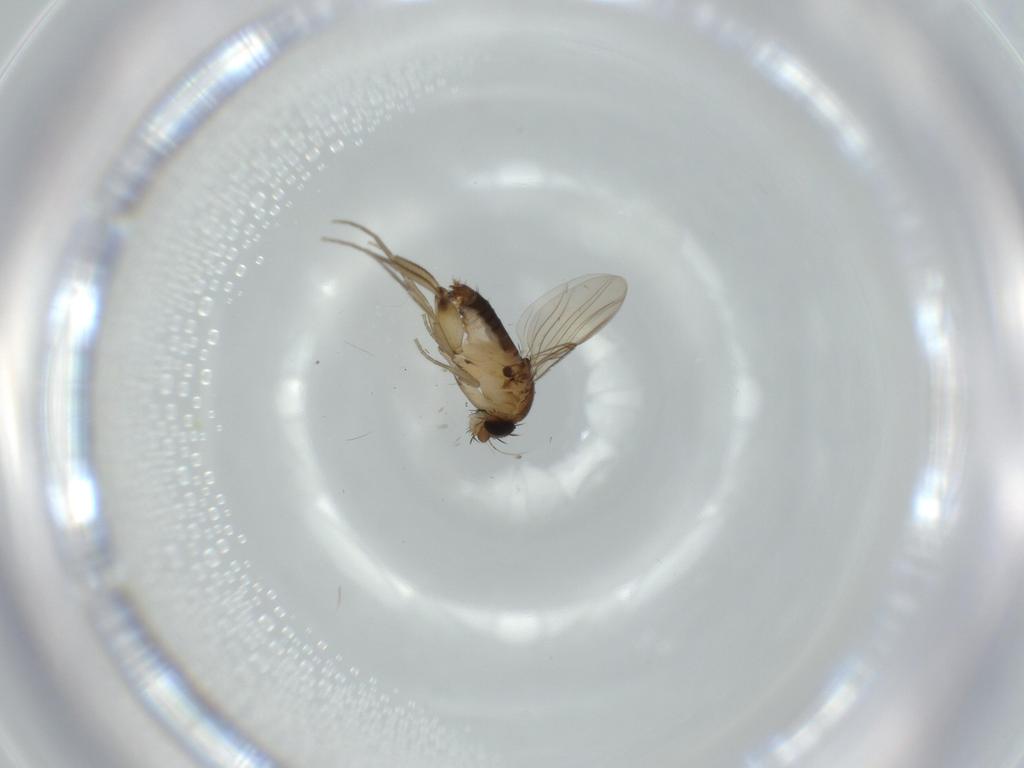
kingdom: Animalia
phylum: Arthropoda
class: Insecta
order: Diptera
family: Phoridae
